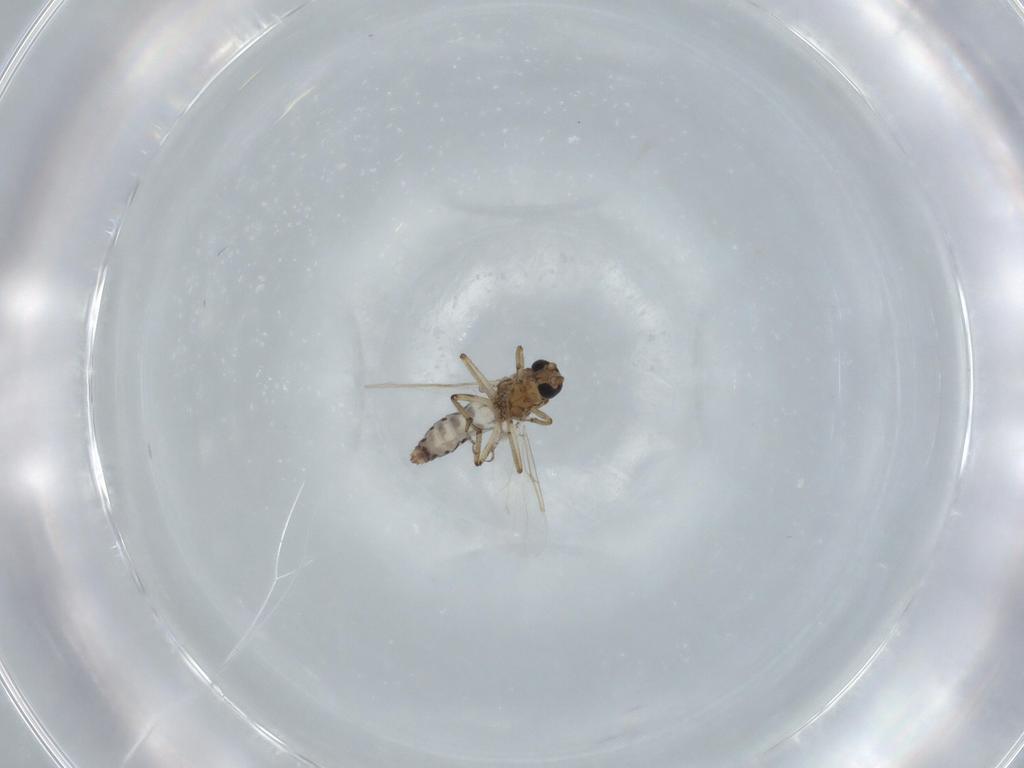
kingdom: Animalia
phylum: Arthropoda
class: Insecta
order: Diptera
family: Ceratopogonidae
